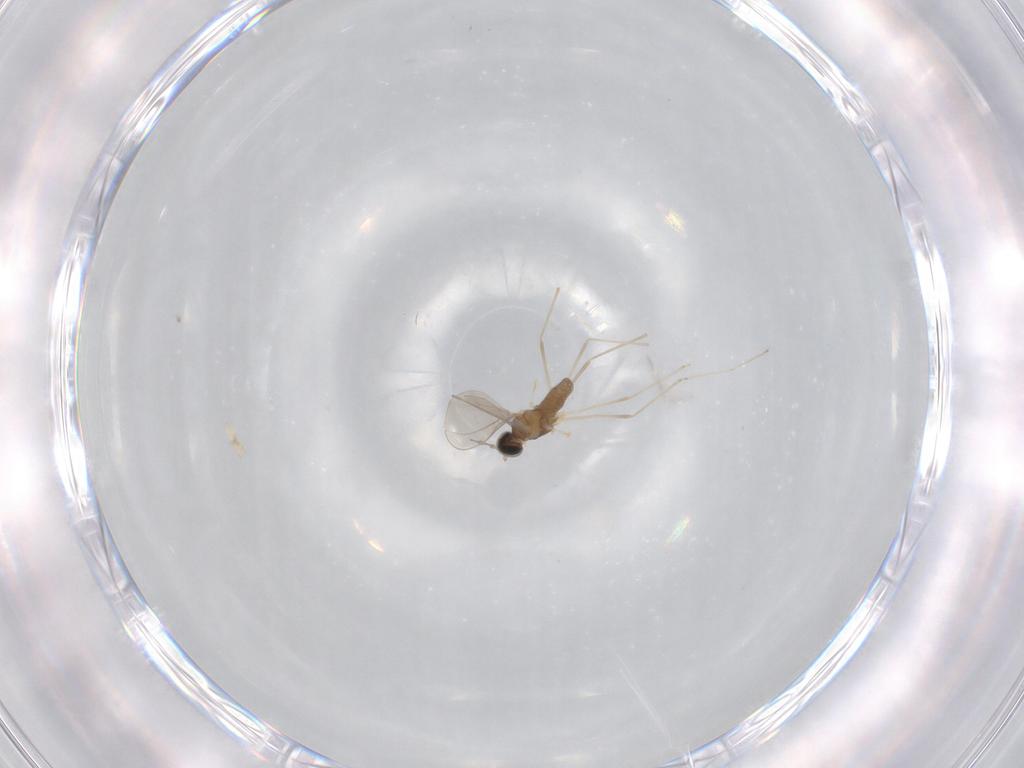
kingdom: Animalia
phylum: Arthropoda
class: Insecta
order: Diptera
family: Cecidomyiidae
